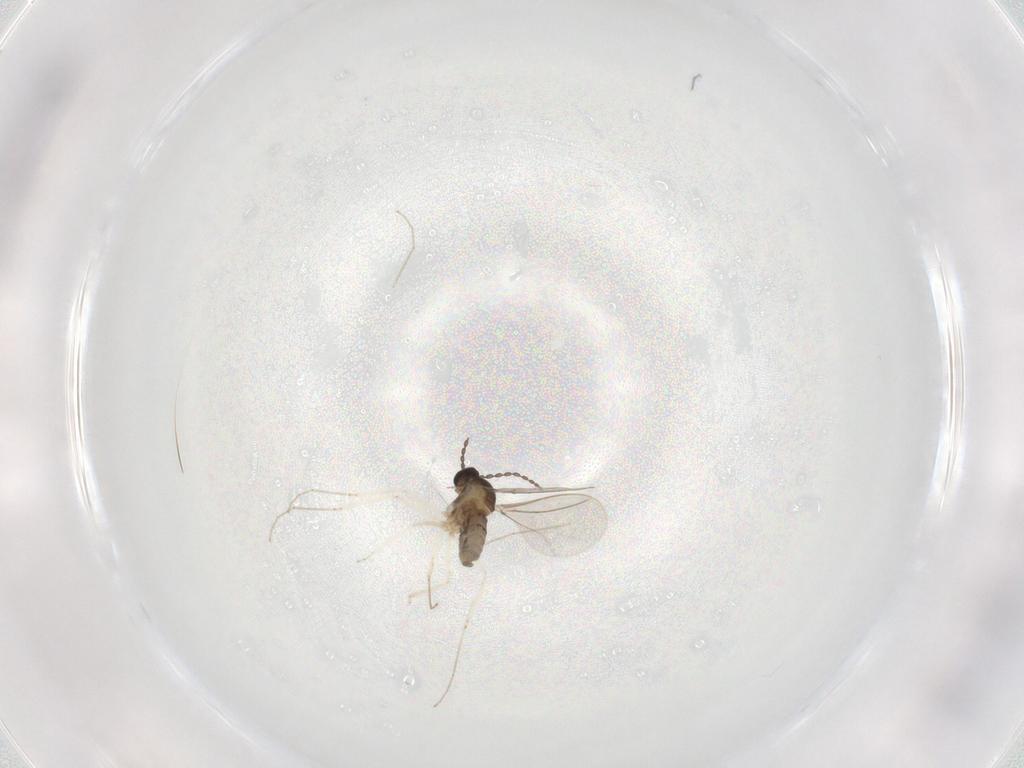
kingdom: Animalia
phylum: Arthropoda
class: Insecta
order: Diptera
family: Cecidomyiidae
